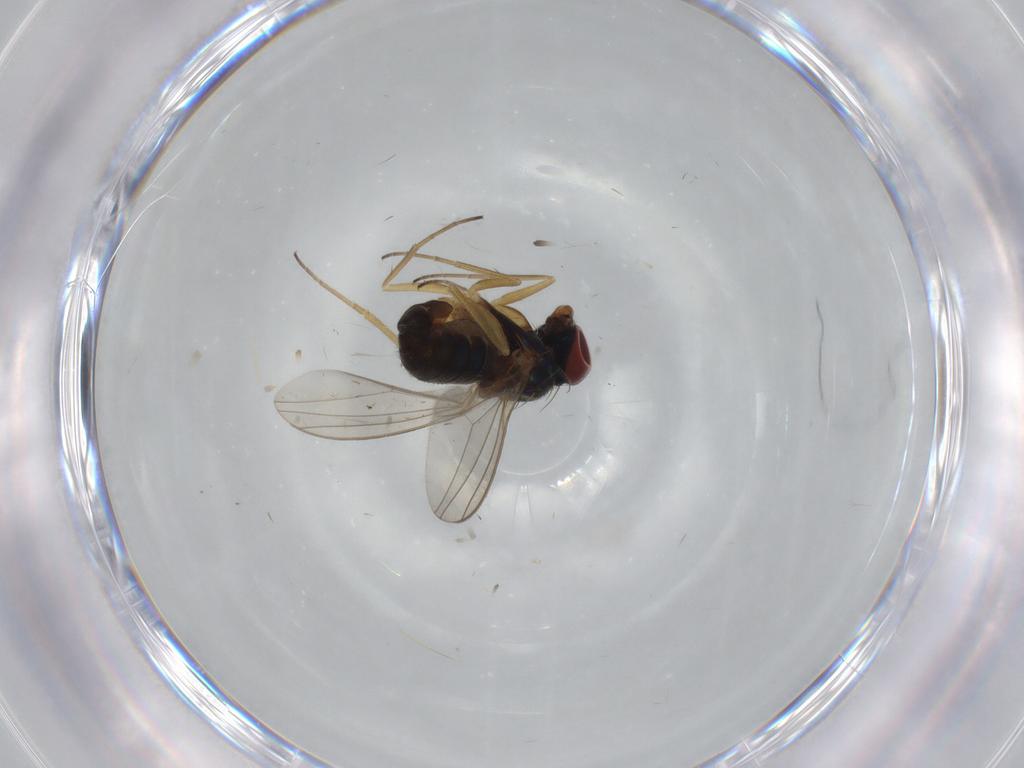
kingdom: Animalia
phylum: Arthropoda
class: Insecta
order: Diptera
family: Dolichopodidae
